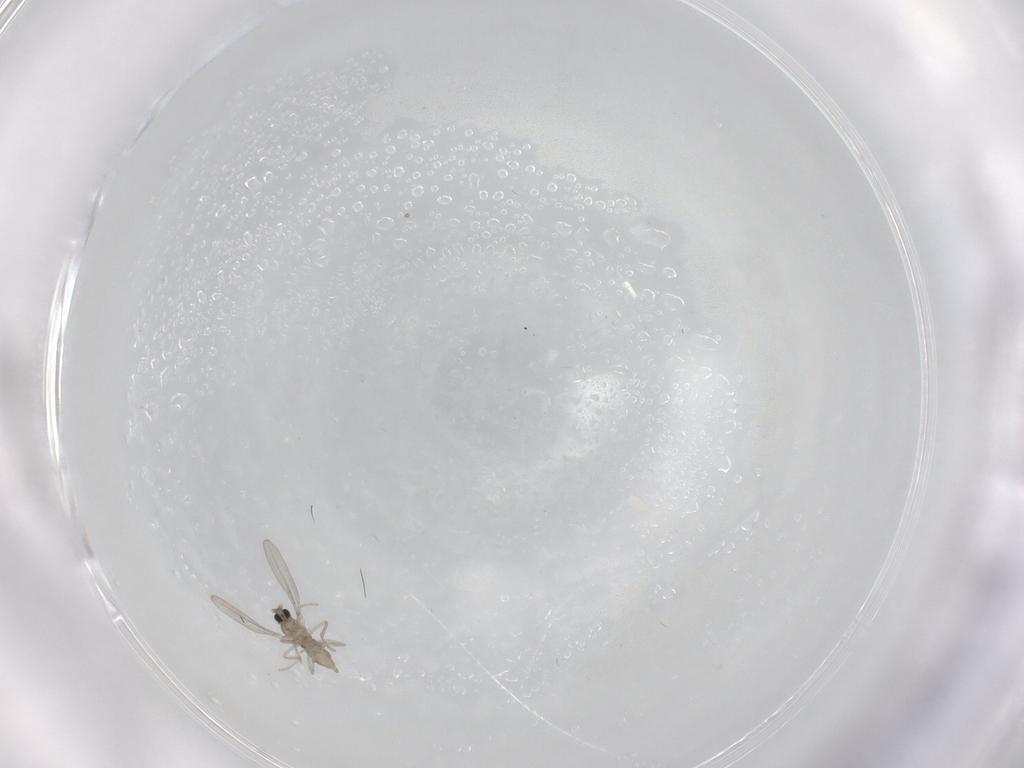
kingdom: Animalia
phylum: Arthropoda
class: Insecta
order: Diptera
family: Cecidomyiidae
